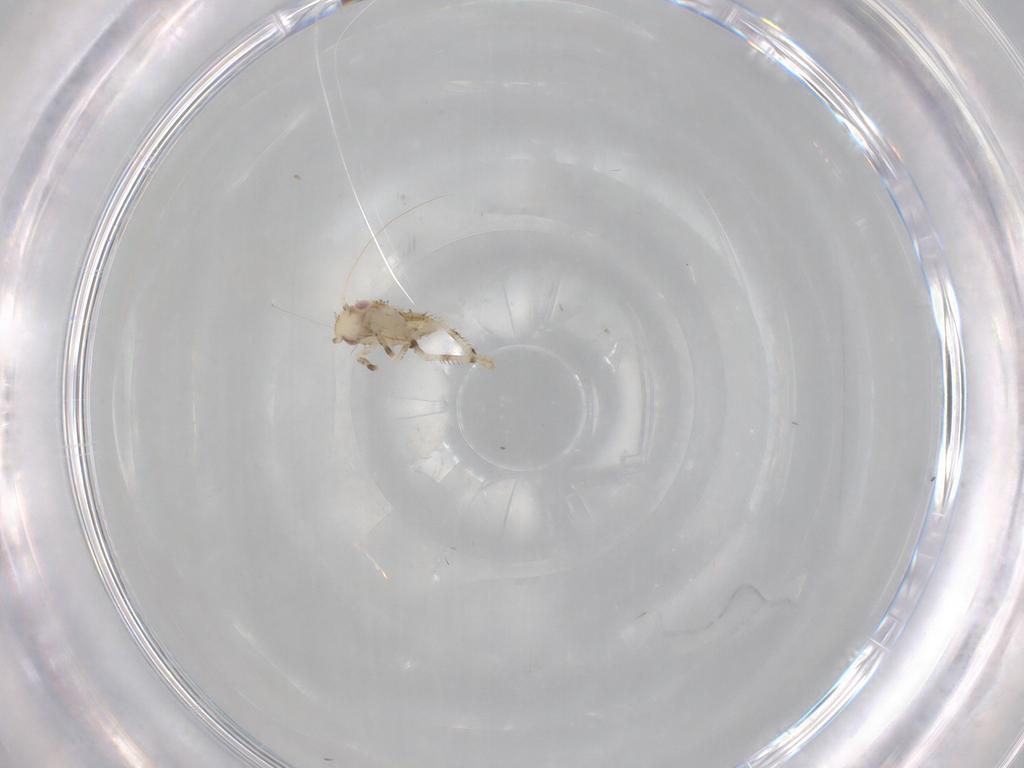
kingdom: Animalia
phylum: Arthropoda
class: Insecta
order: Hemiptera
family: Cicadellidae
